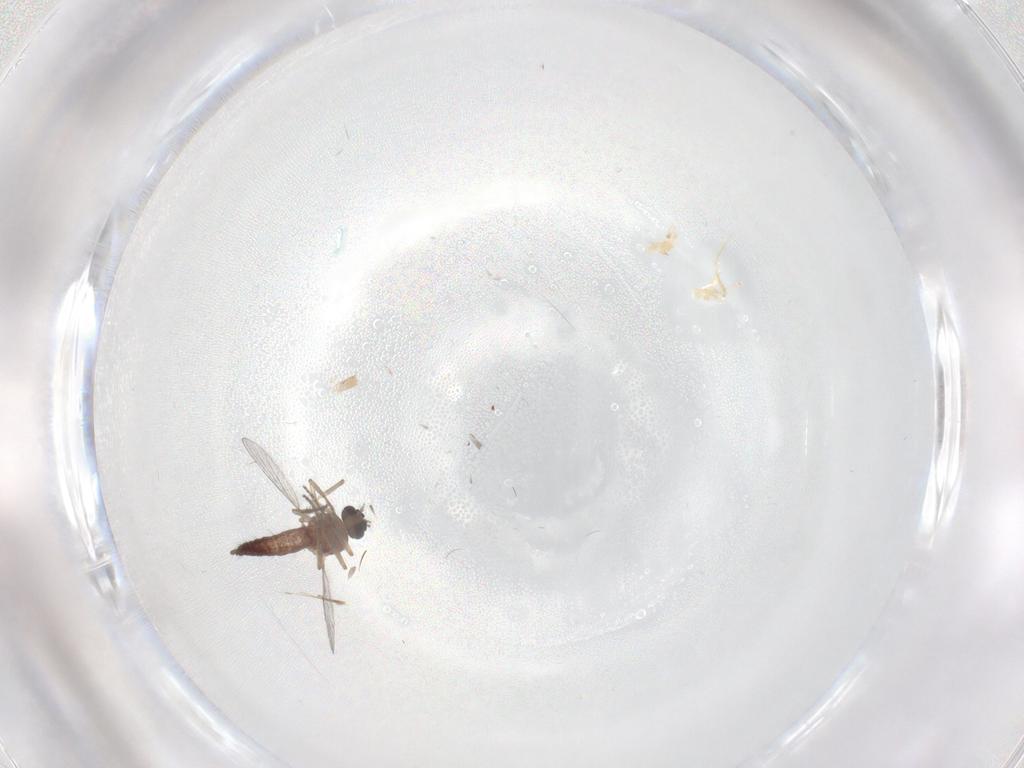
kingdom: Animalia
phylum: Arthropoda
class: Insecta
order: Diptera
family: Ceratopogonidae
